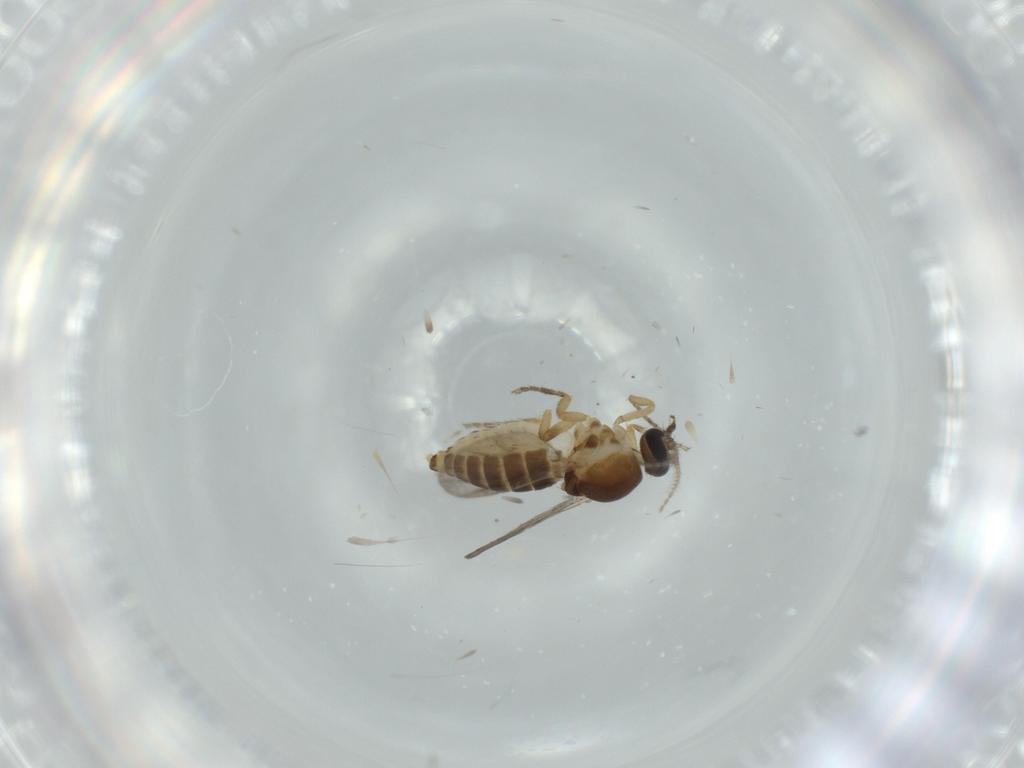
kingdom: Animalia
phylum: Arthropoda
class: Insecta
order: Diptera
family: Ceratopogonidae
